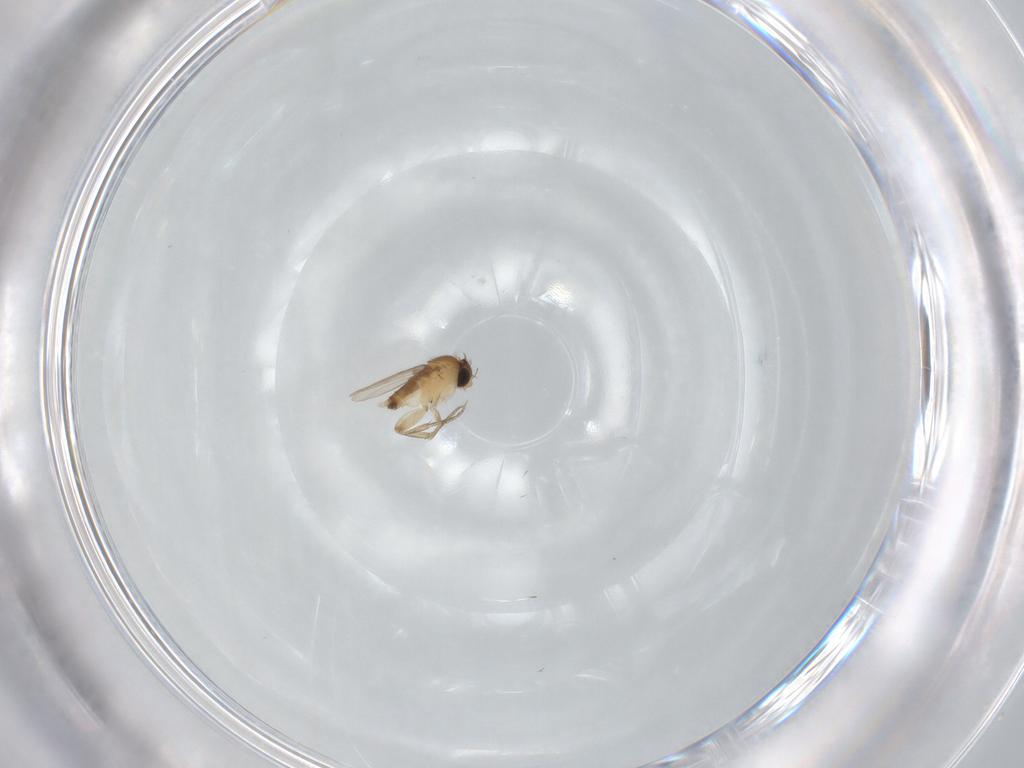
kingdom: Animalia
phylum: Arthropoda
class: Insecta
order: Diptera
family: Phoridae
